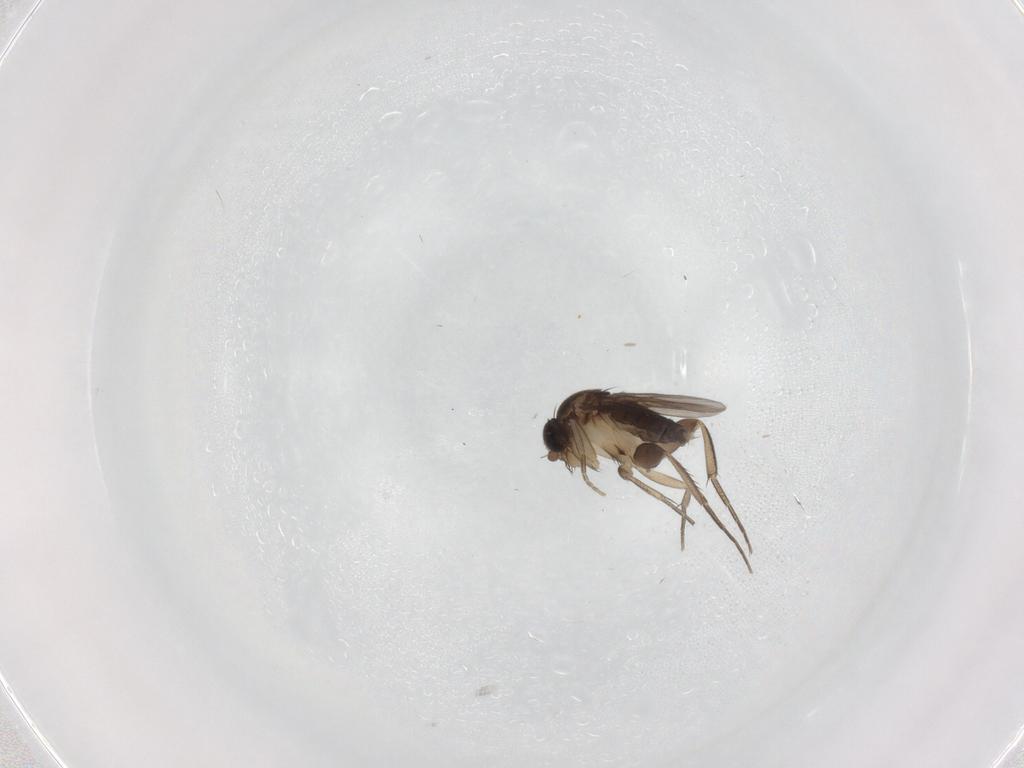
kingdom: Animalia
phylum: Arthropoda
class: Insecta
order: Diptera
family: Phoridae
